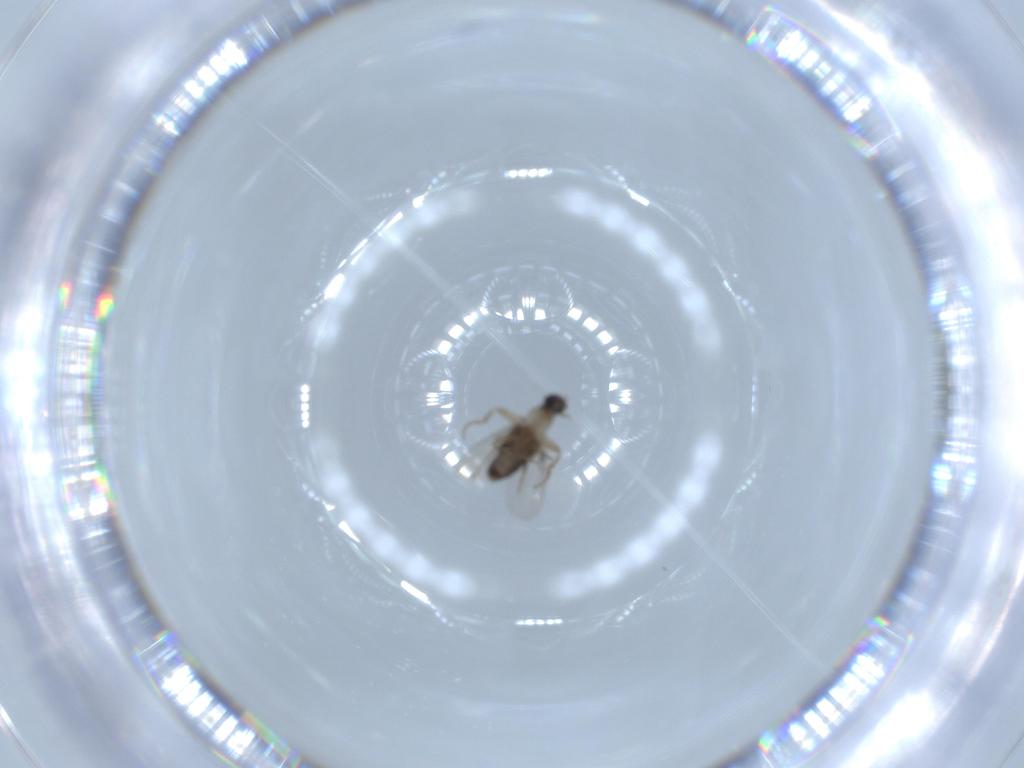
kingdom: Animalia
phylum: Arthropoda
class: Insecta
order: Diptera
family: Phoridae
